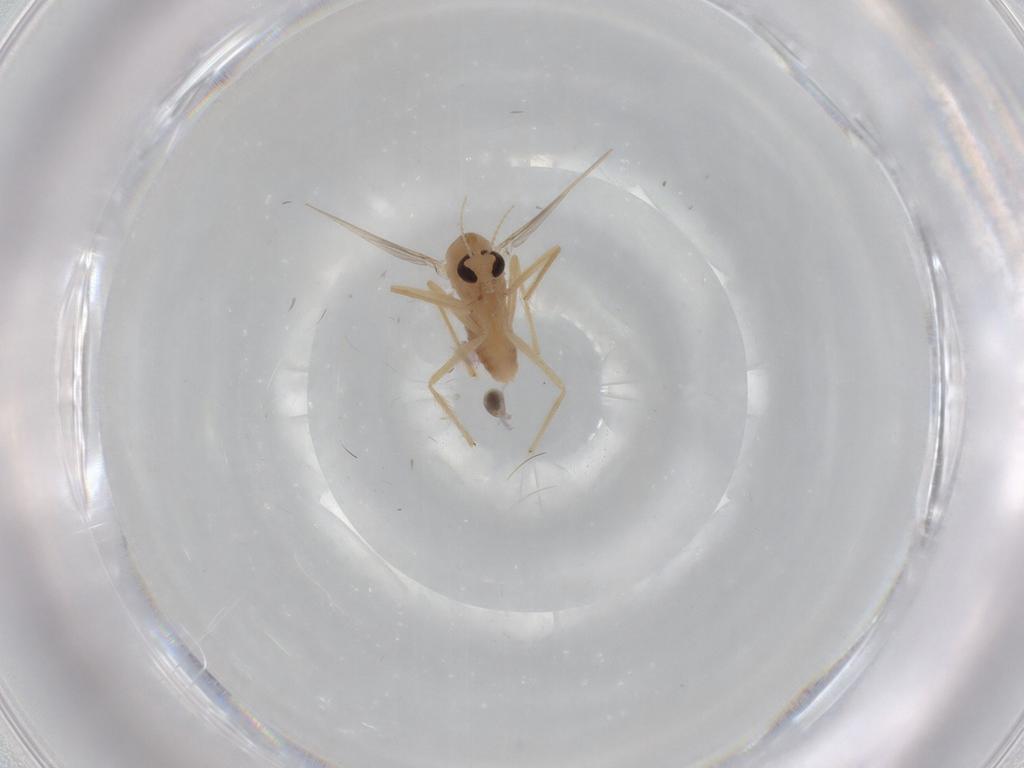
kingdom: Animalia
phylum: Arthropoda
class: Insecta
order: Diptera
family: Chironomidae
